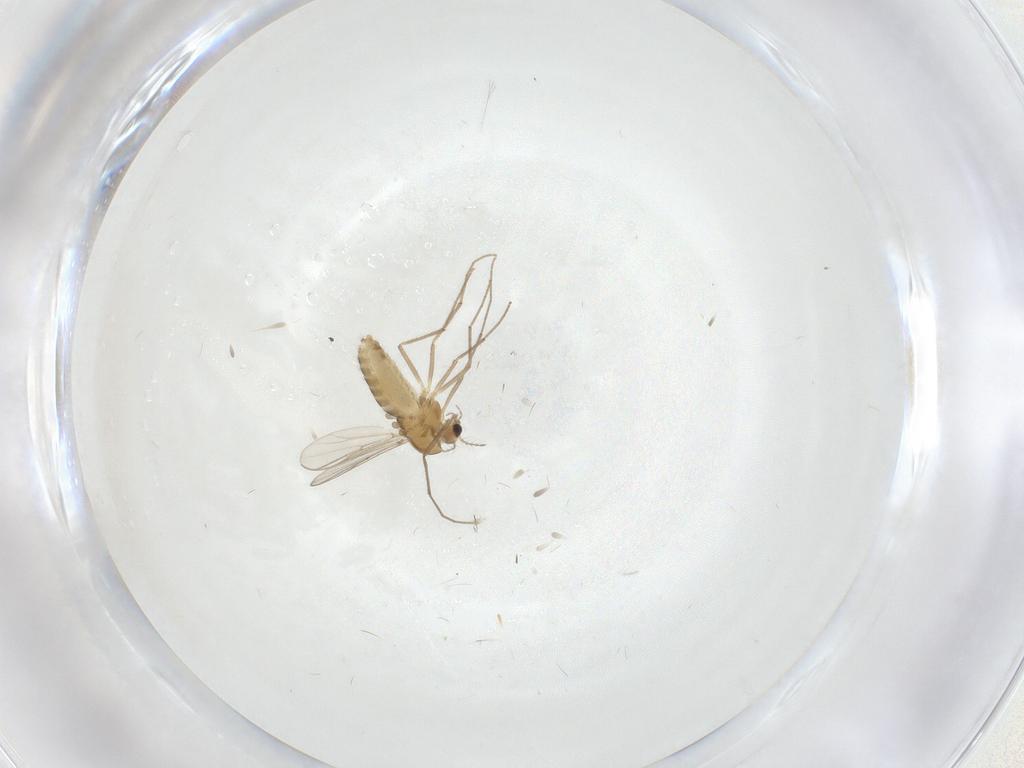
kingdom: Animalia
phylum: Arthropoda
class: Insecta
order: Diptera
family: Chironomidae
